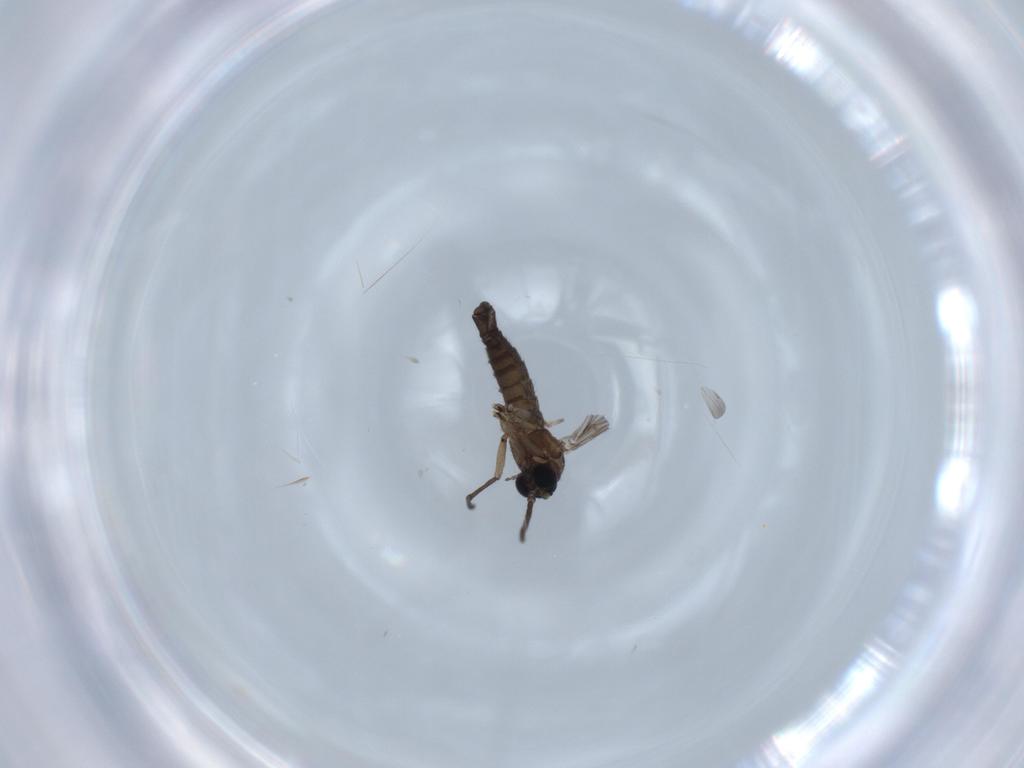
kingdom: Animalia
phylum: Arthropoda
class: Insecta
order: Diptera
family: Sciaridae
